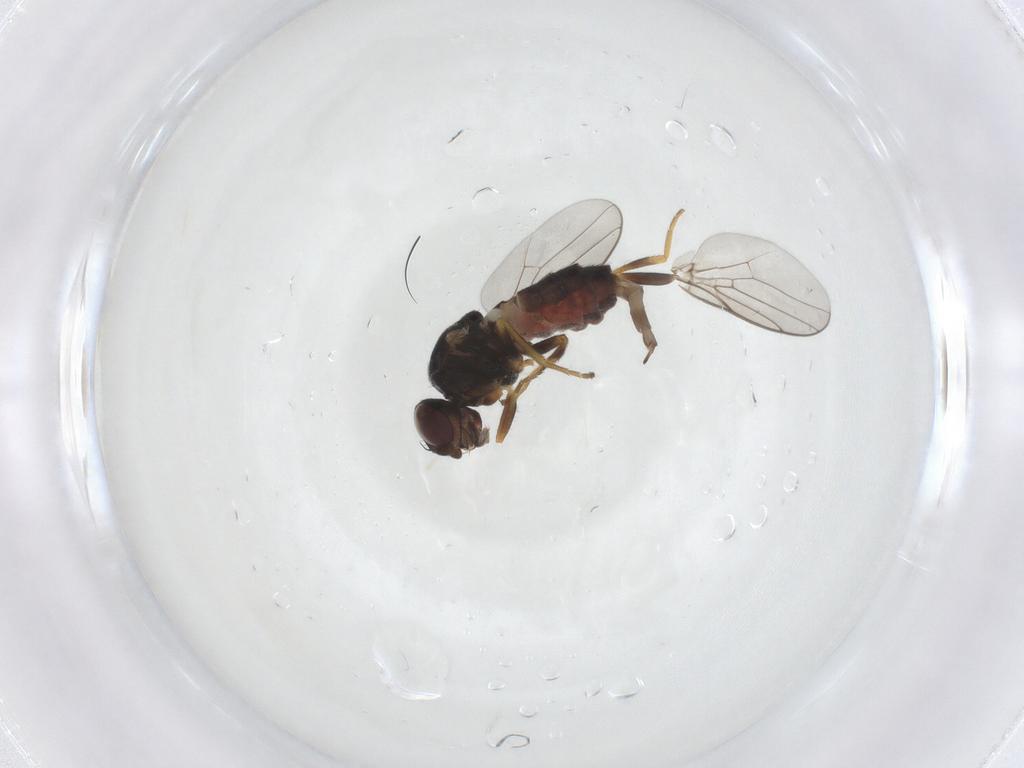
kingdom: Animalia
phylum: Arthropoda
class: Insecta
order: Diptera
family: Chloropidae
